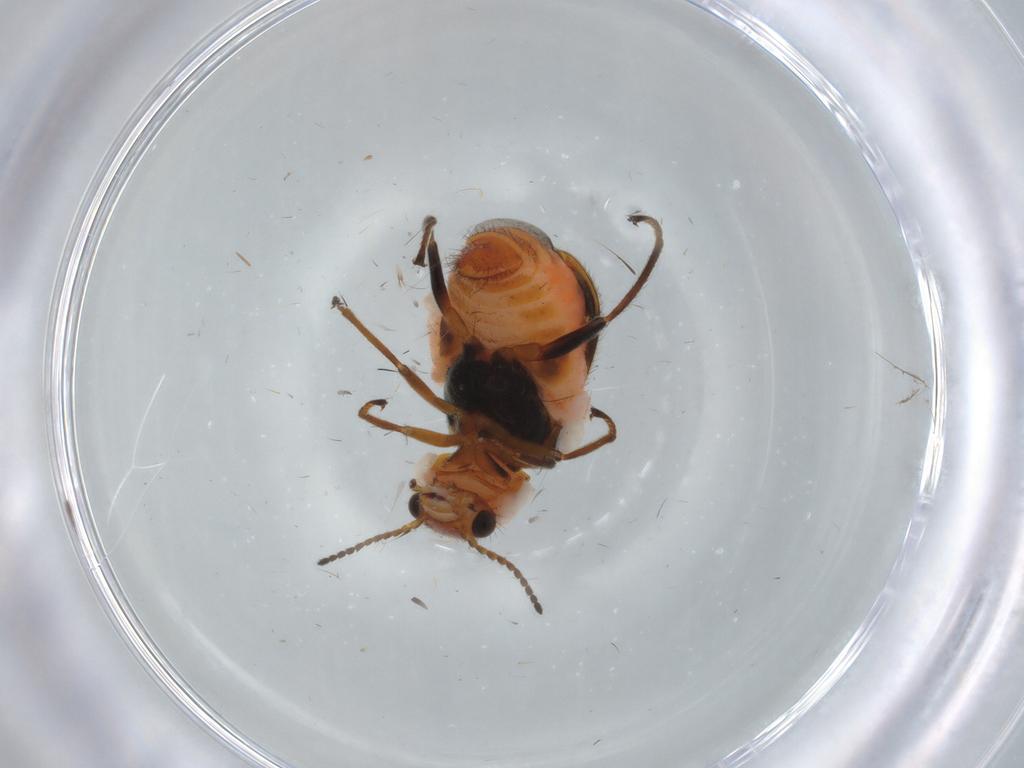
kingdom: Animalia
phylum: Arthropoda
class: Insecta
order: Coleoptera
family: Melyridae
